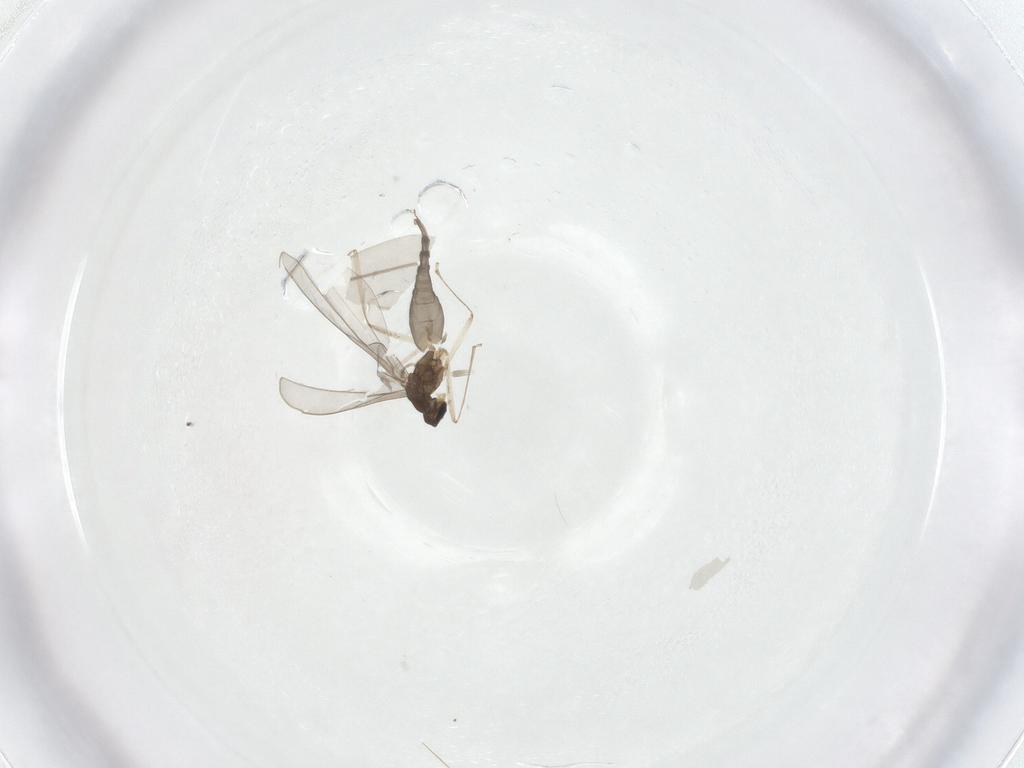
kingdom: Animalia
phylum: Arthropoda
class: Insecta
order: Diptera
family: Cecidomyiidae
